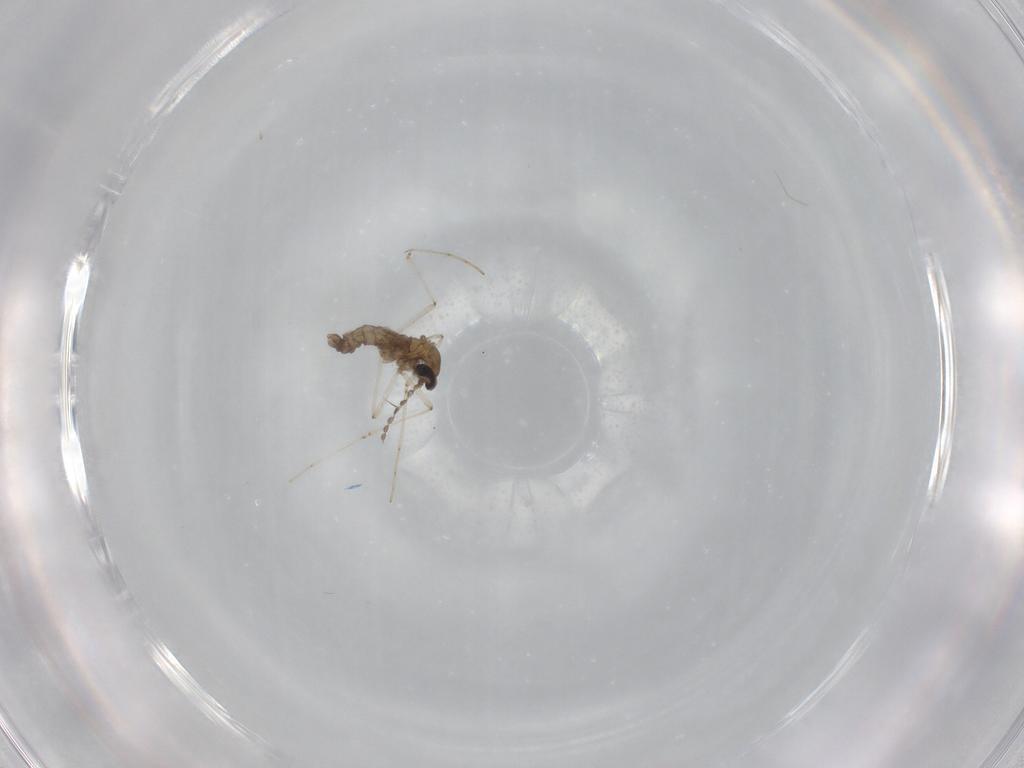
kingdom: Animalia
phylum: Arthropoda
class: Insecta
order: Diptera
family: Cecidomyiidae
